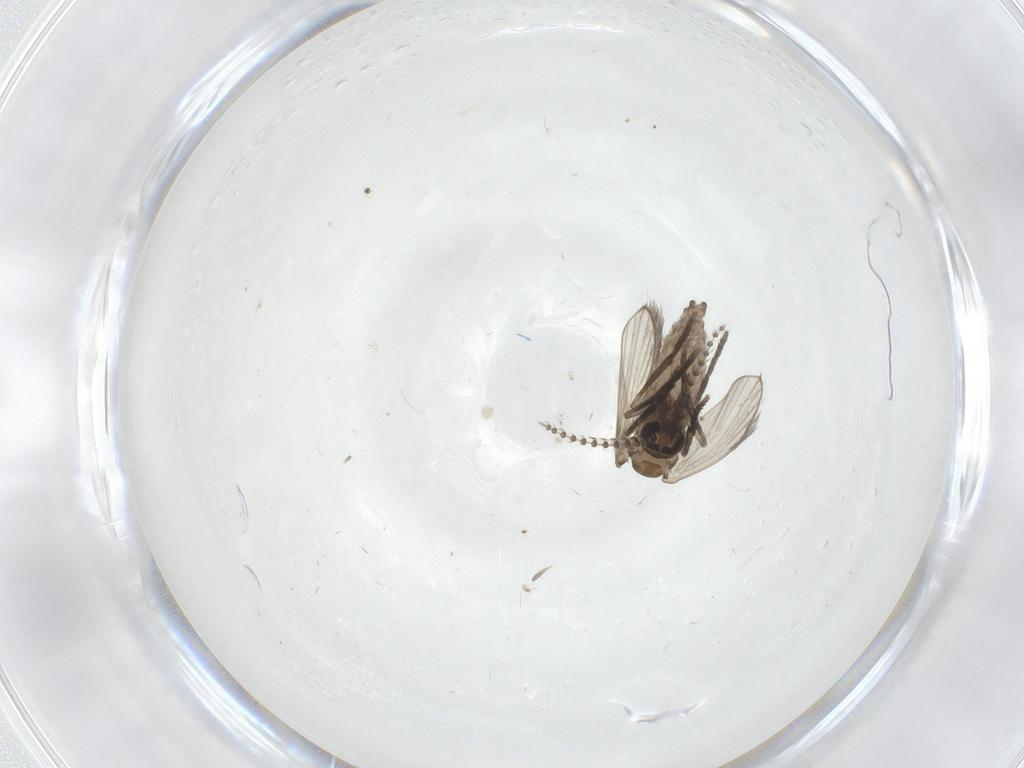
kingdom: Animalia
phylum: Arthropoda
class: Insecta
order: Diptera
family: Psychodidae
